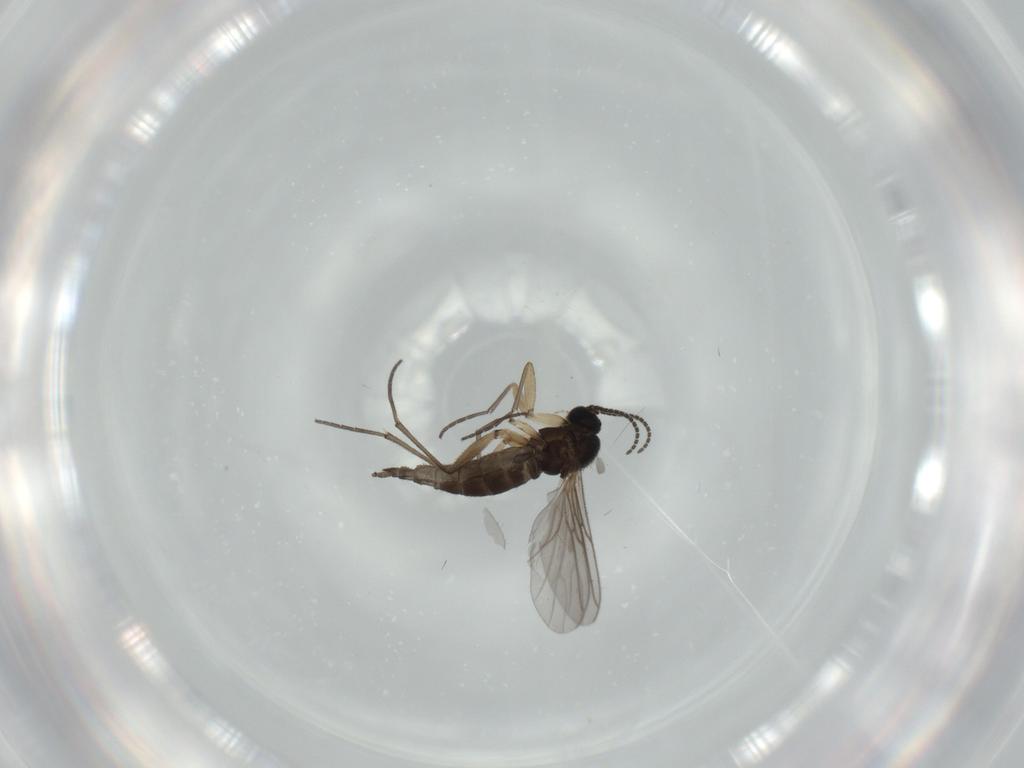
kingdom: Animalia
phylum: Arthropoda
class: Insecta
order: Diptera
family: Sciaridae
